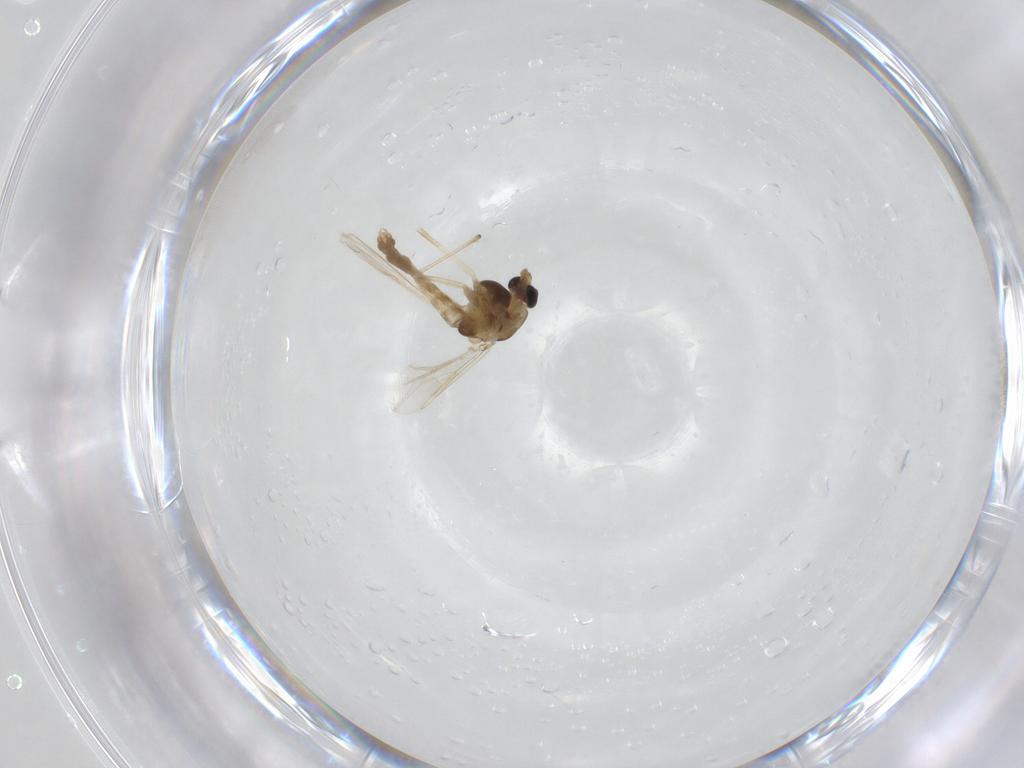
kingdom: Animalia
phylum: Arthropoda
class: Insecta
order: Diptera
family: Chironomidae
